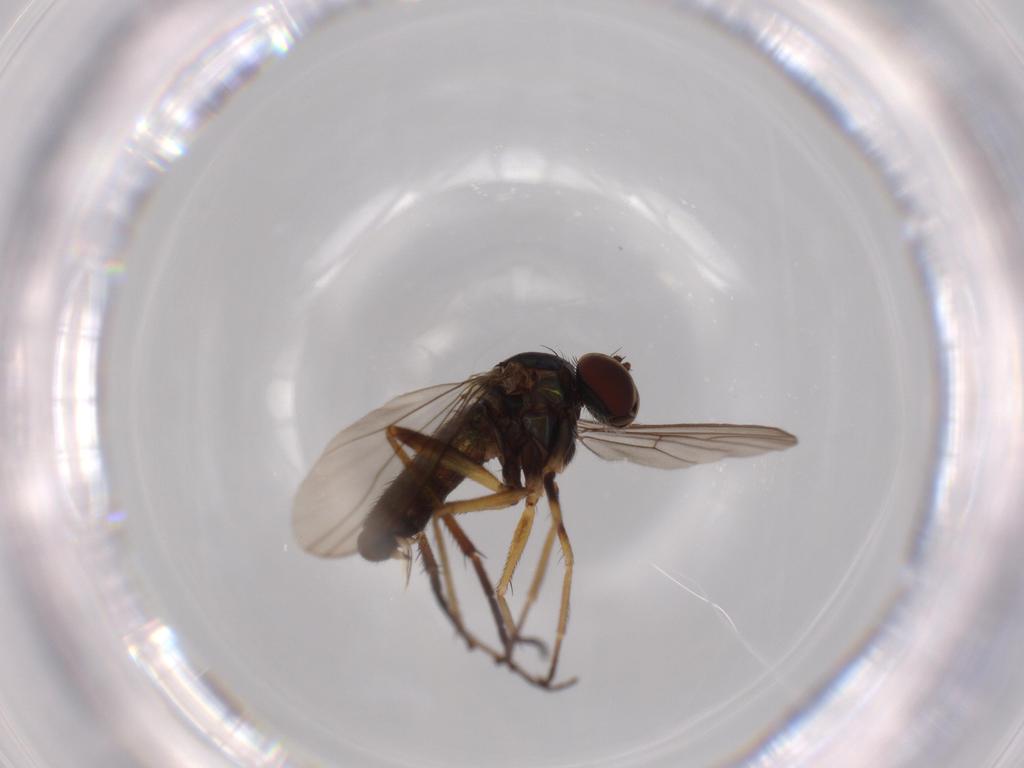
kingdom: Animalia
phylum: Arthropoda
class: Insecta
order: Diptera
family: Dolichopodidae
